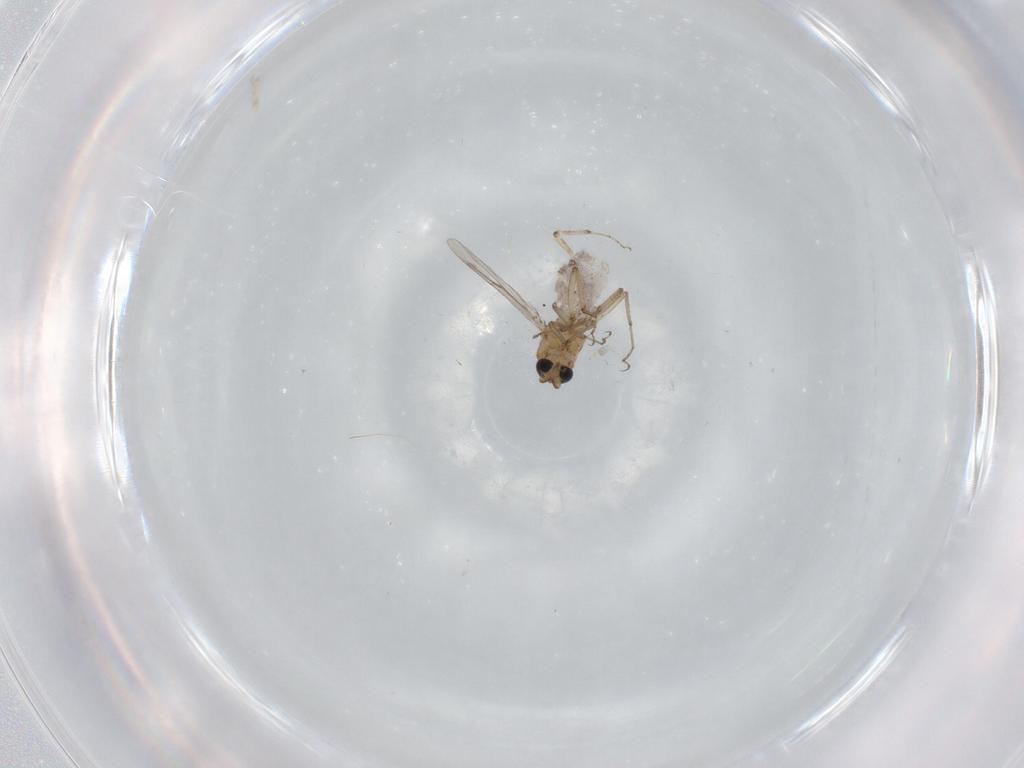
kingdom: Animalia
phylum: Arthropoda
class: Insecta
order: Diptera
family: Ceratopogonidae
